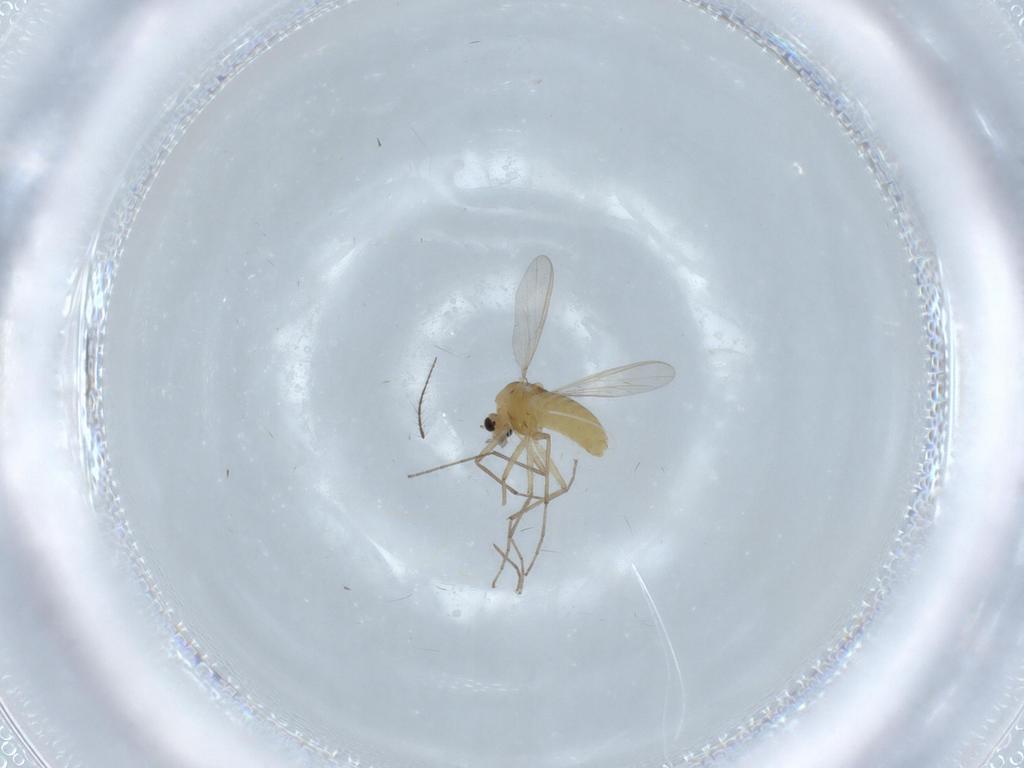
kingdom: Animalia
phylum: Arthropoda
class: Insecta
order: Diptera
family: Chironomidae
